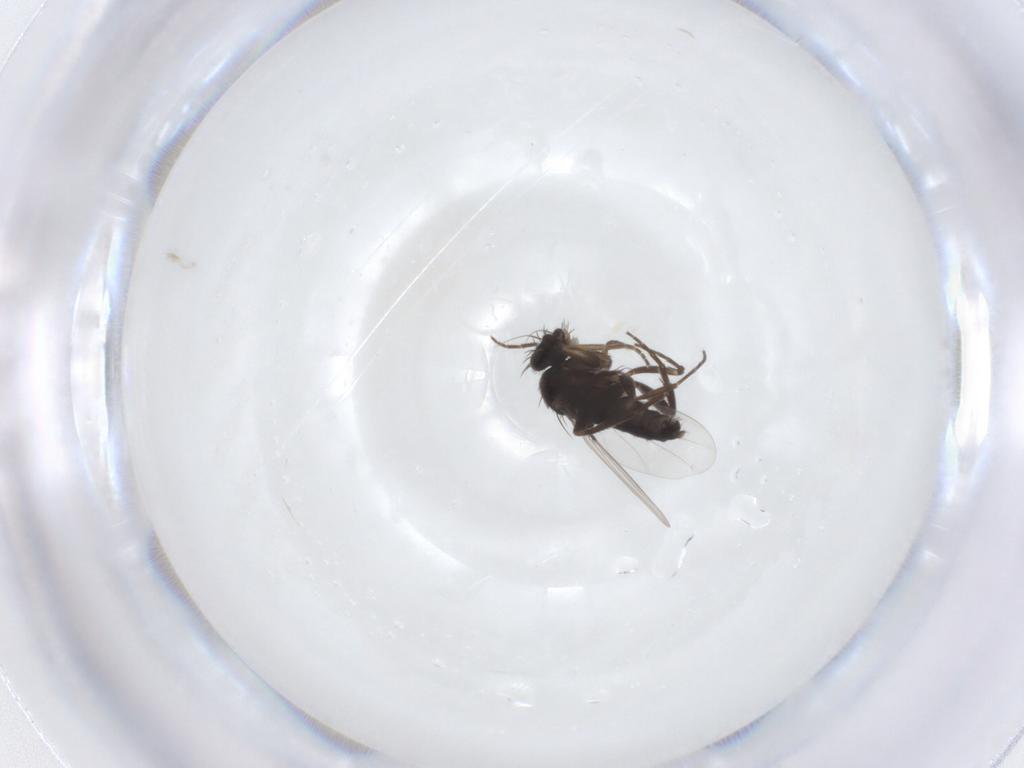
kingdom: Animalia
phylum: Arthropoda
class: Insecta
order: Diptera
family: Phoridae
